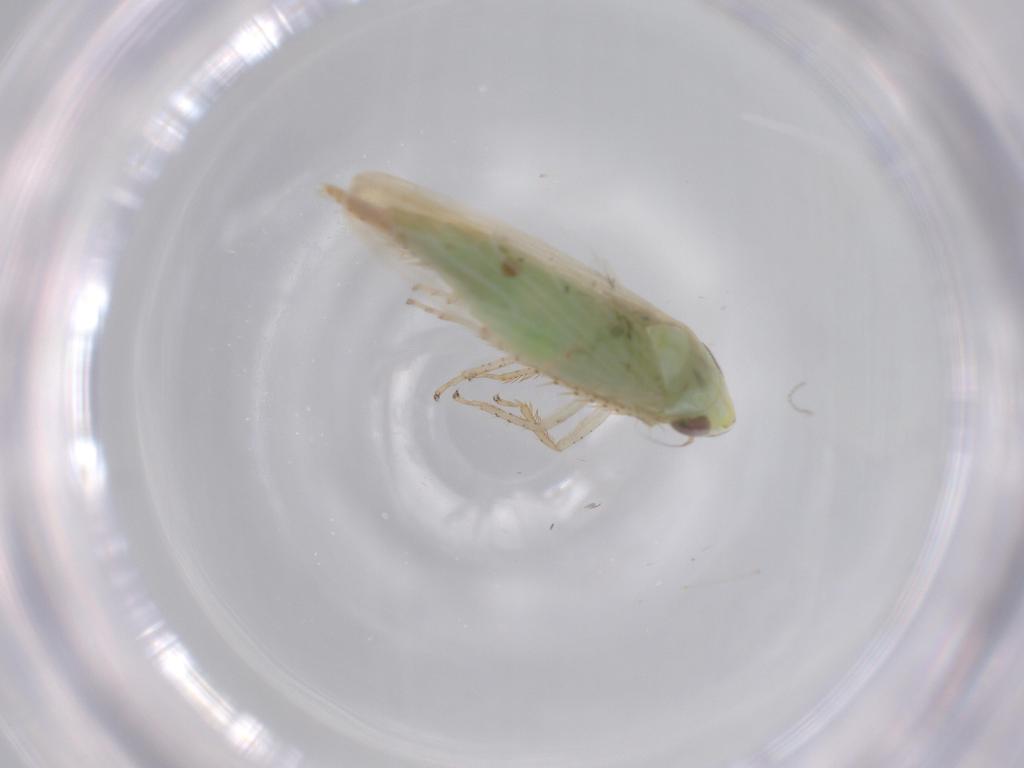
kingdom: Animalia
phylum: Arthropoda
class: Insecta
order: Hemiptera
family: Cicadellidae
